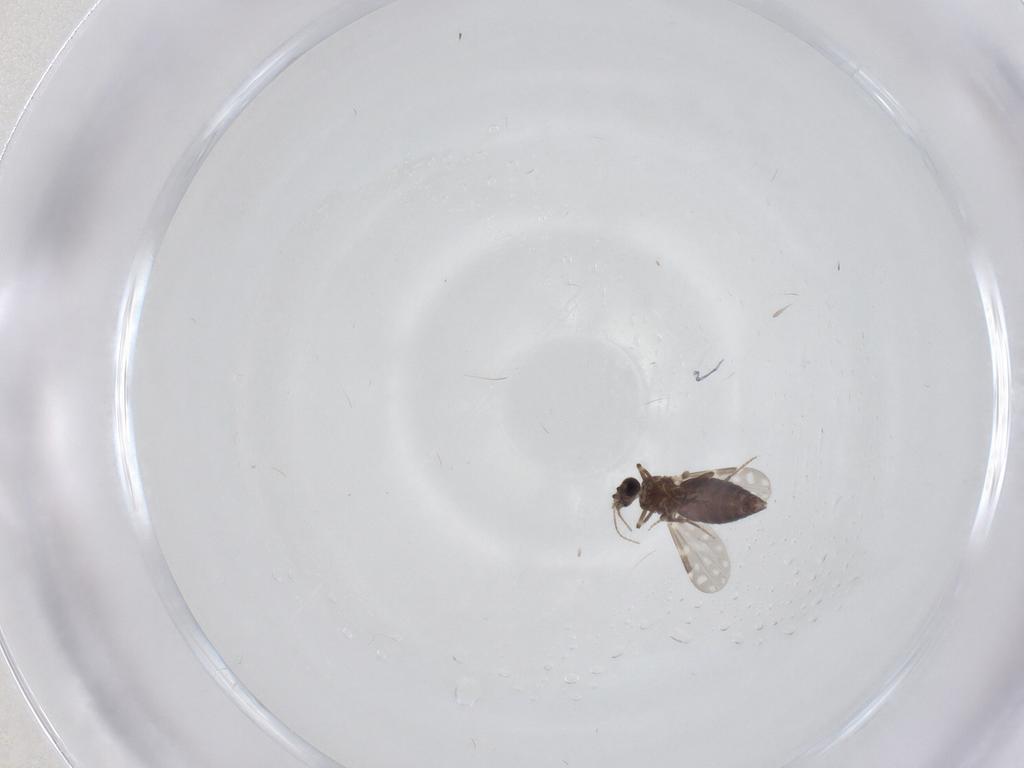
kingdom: Animalia
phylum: Arthropoda
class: Insecta
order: Diptera
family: Ceratopogonidae
